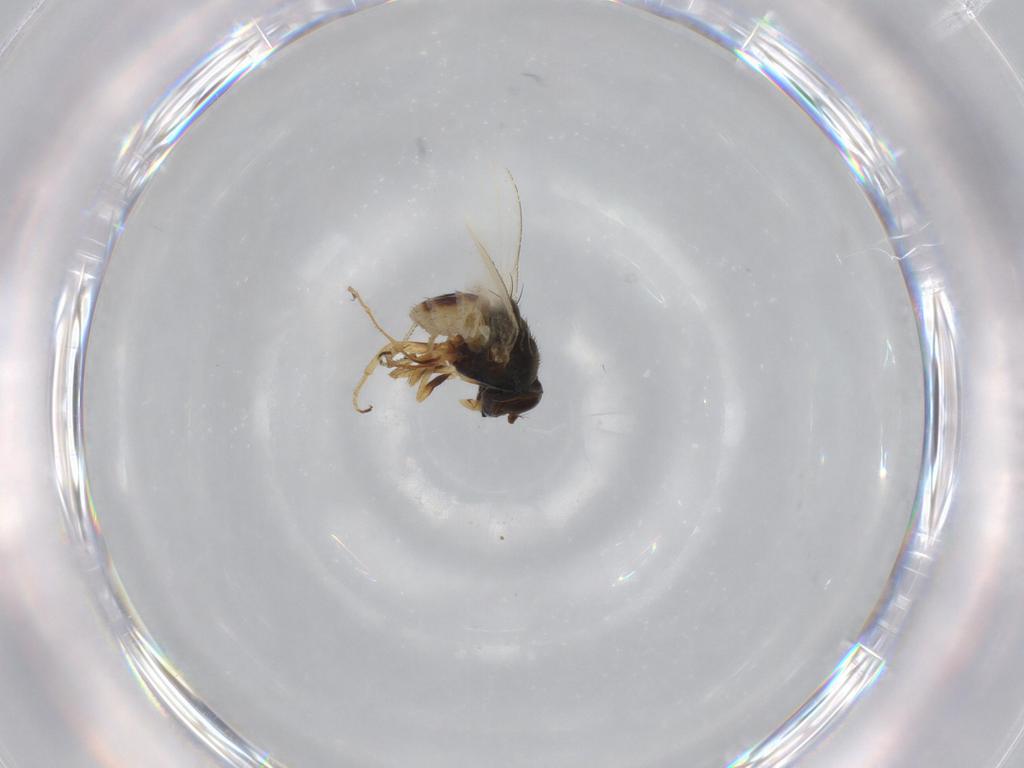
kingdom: Animalia
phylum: Arthropoda
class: Insecta
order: Diptera
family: Ephydridae
